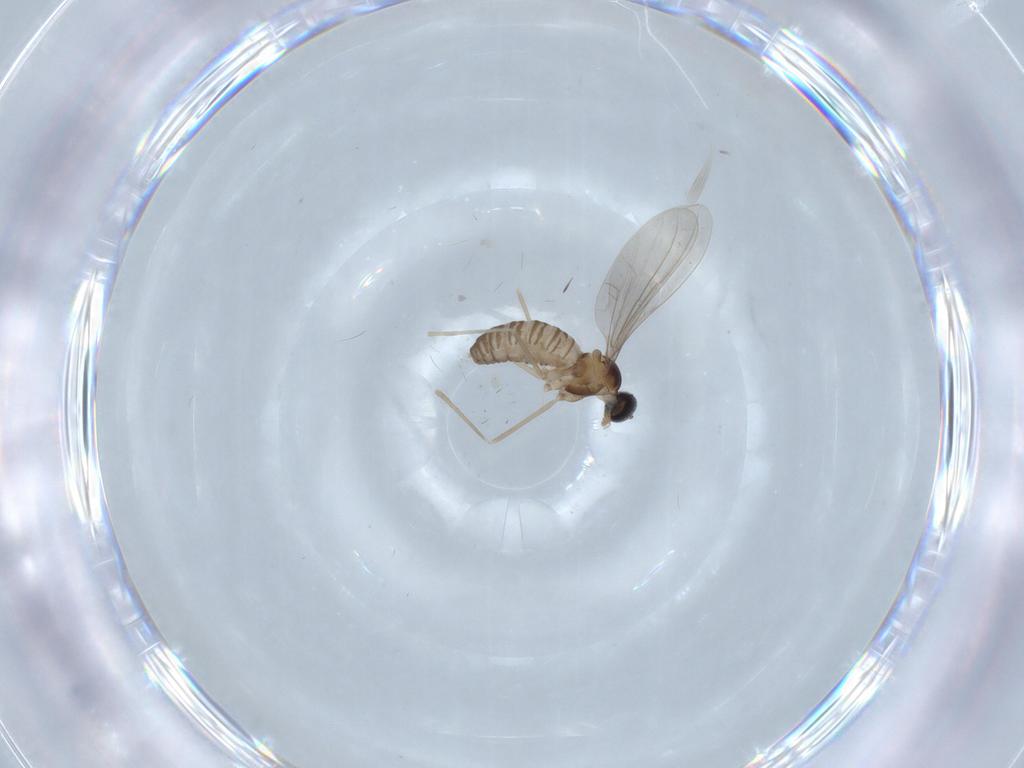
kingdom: Animalia
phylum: Arthropoda
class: Insecta
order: Diptera
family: Cecidomyiidae
